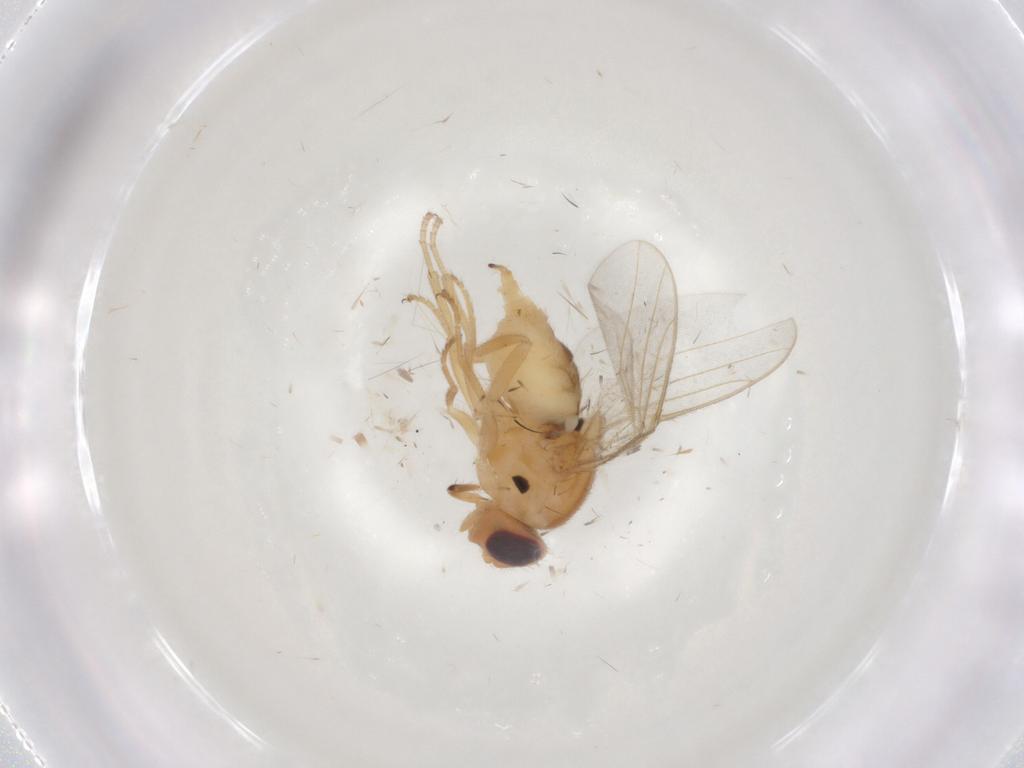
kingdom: Animalia
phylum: Arthropoda
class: Insecta
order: Diptera
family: Chloropidae
